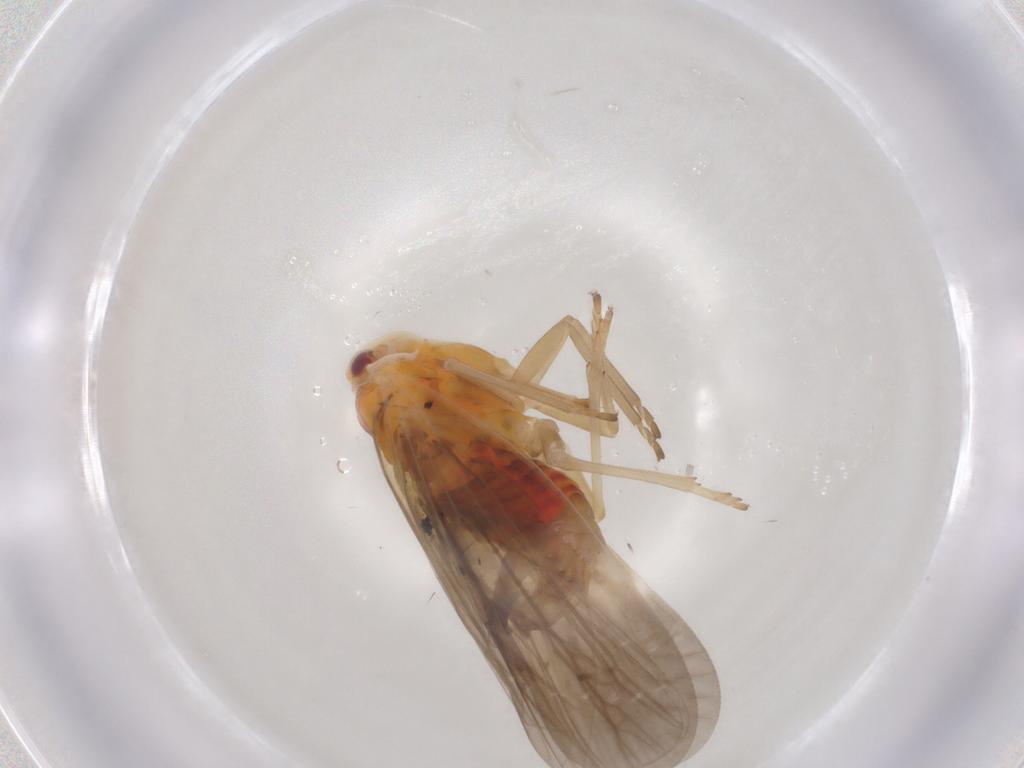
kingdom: Animalia
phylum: Arthropoda
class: Insecta
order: Hemiptera
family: Derbidae
